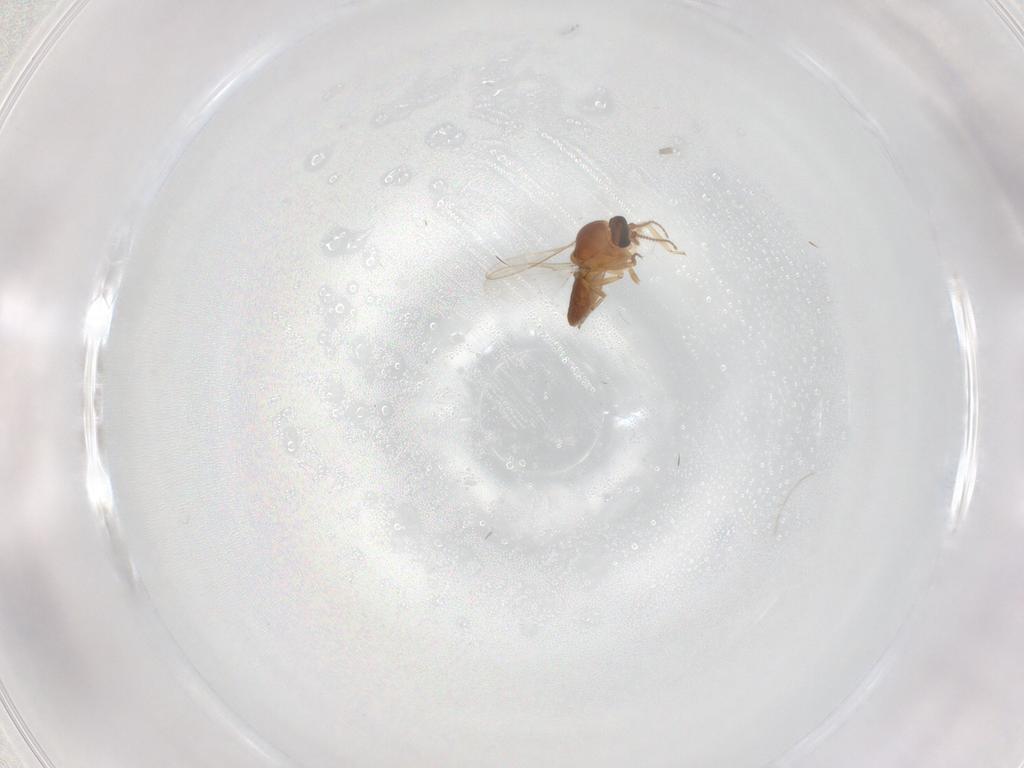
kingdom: Animalia
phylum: Arthropoda
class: Insecta
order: Diptera
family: Ceratopogonidae
